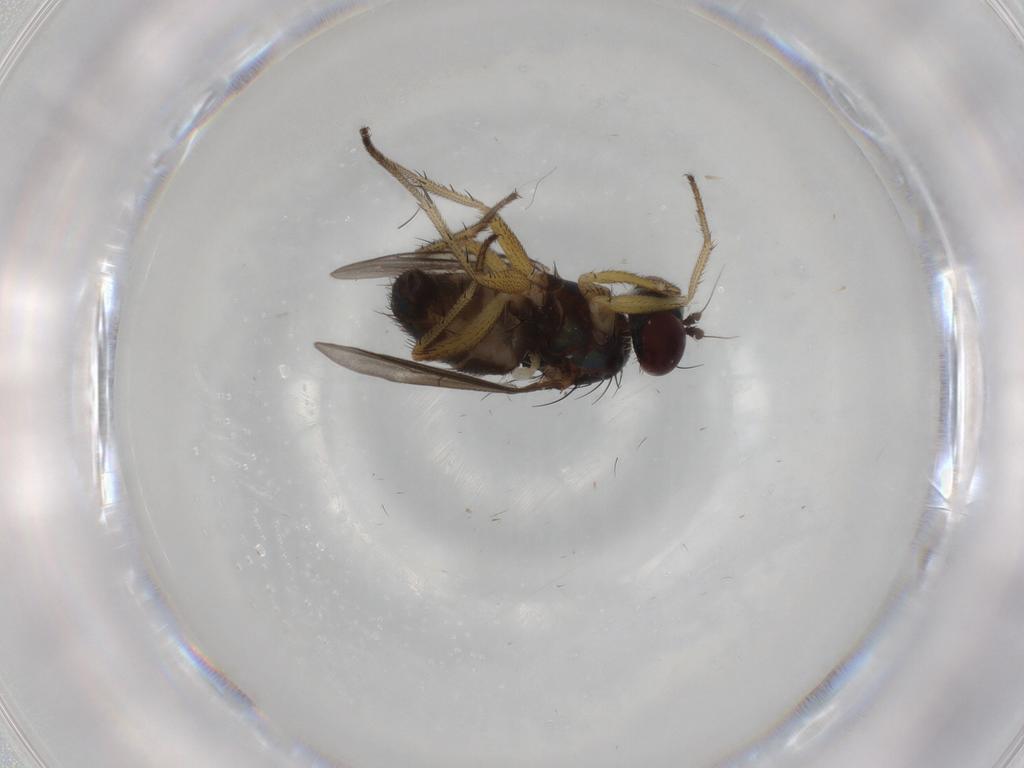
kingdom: Animalia
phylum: Arthropoda
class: Insecta
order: Diptera
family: Dolichopodidae
